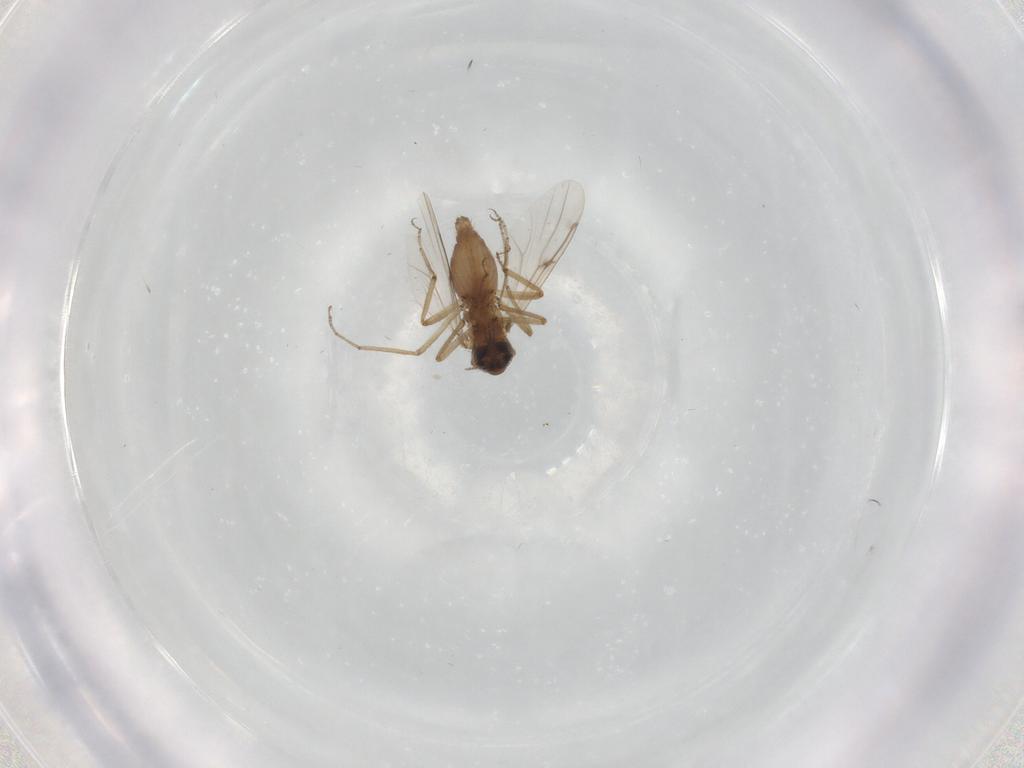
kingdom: Animalia
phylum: Arthropoda
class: Insecta
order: Diptera
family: Ceratopogonidae
